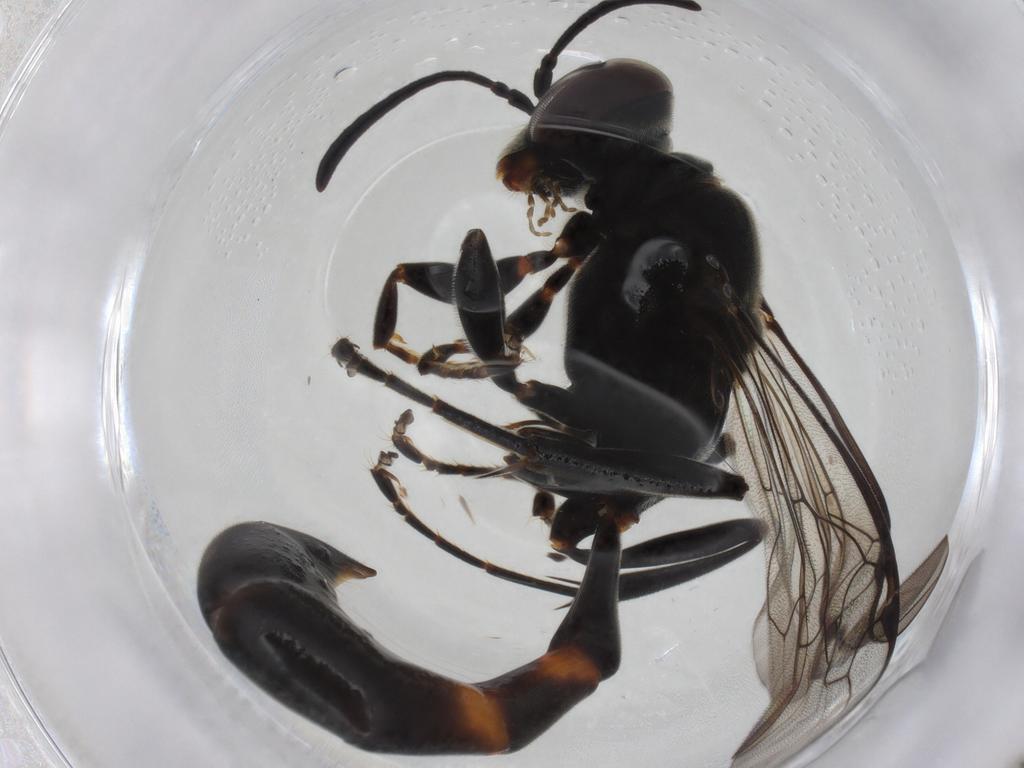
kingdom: Animalia
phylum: Arthropoda
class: Insecta
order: Hymenoptera
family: Crabronidae
